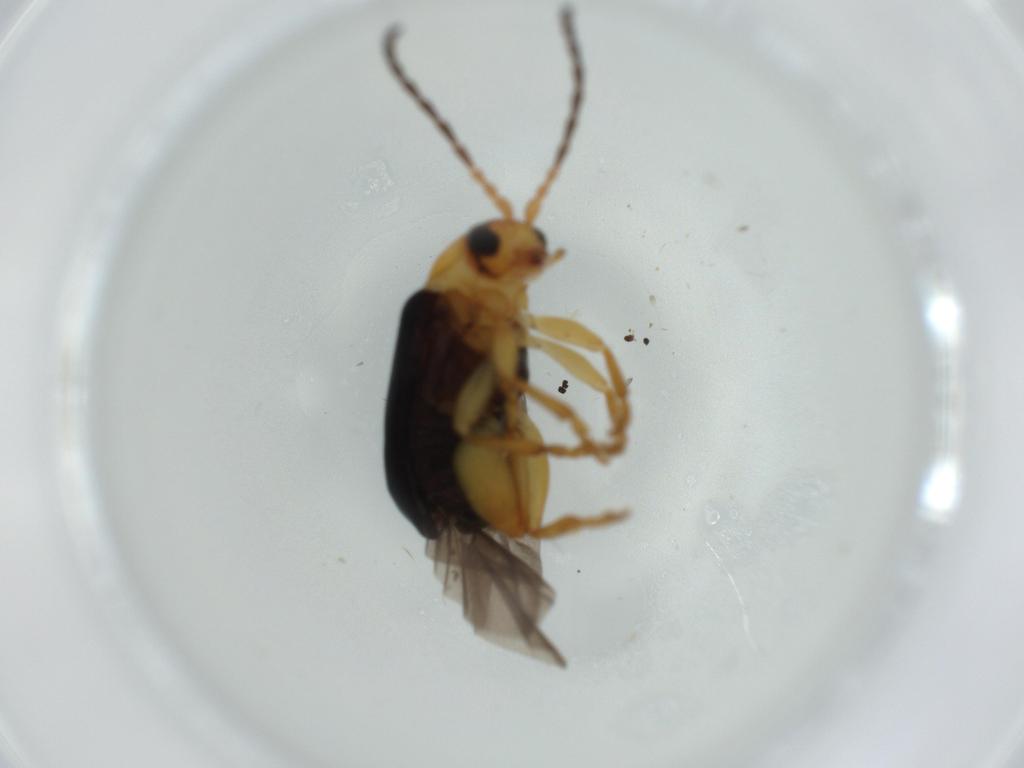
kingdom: Animalia
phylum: Arthropoda
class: Insecta
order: Coleoptera
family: Chrysomelidae
